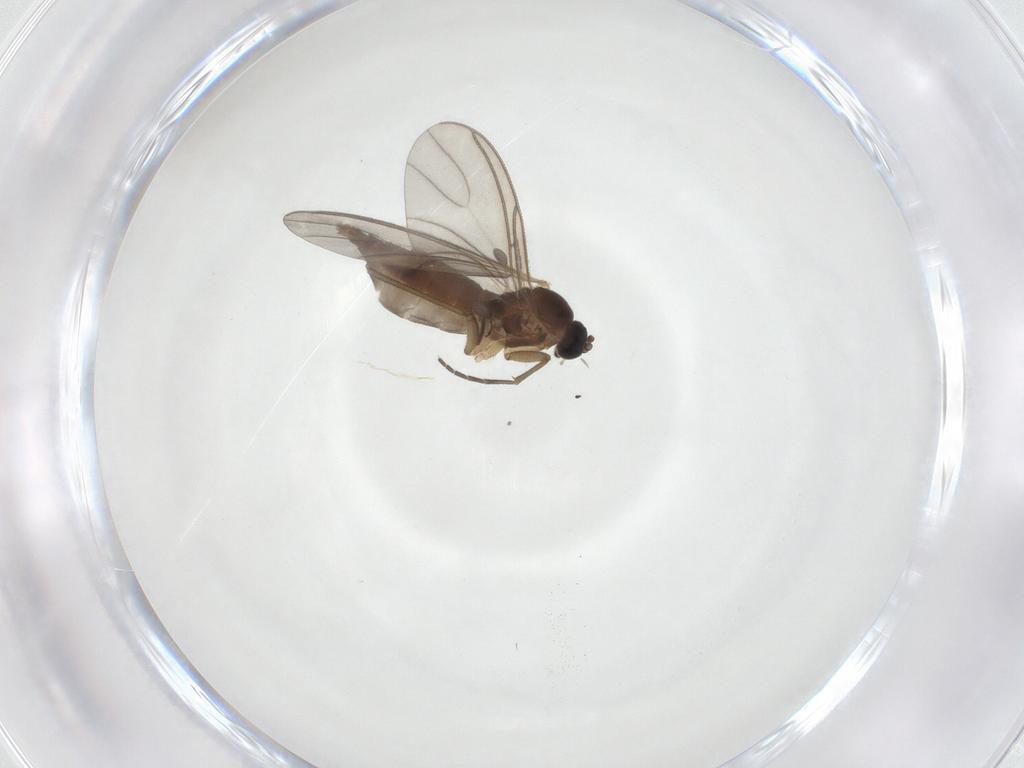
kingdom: Animalia
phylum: Arthropoda
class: Insecta
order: Diptera
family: Sciaridae
